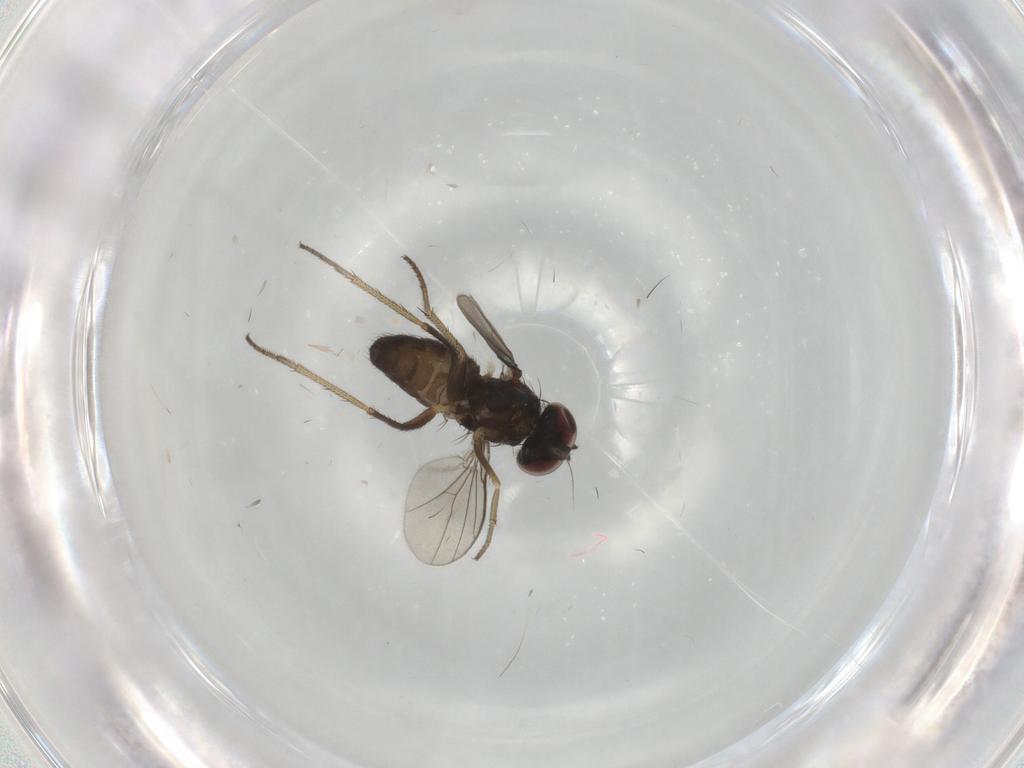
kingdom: Animalia
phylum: Arthropoda
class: Insecta
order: Diptera
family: Dolichopodidae
